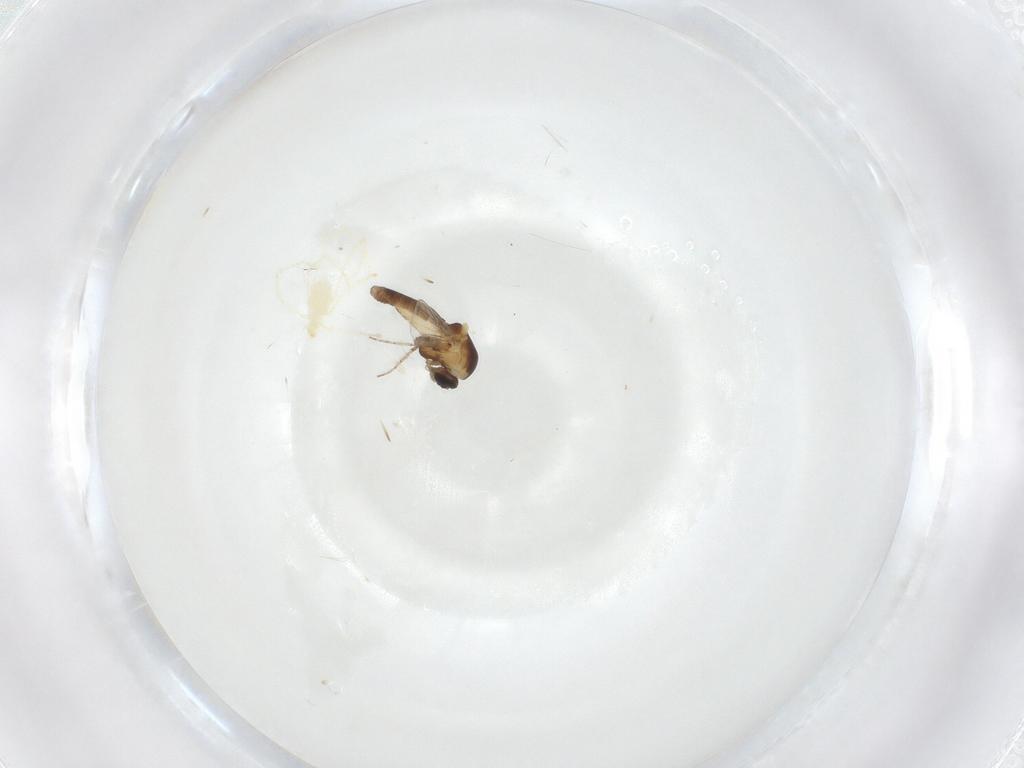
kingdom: Animalia
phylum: Arthropoda
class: Insecta
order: Diptera
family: Ceratopogonidae
